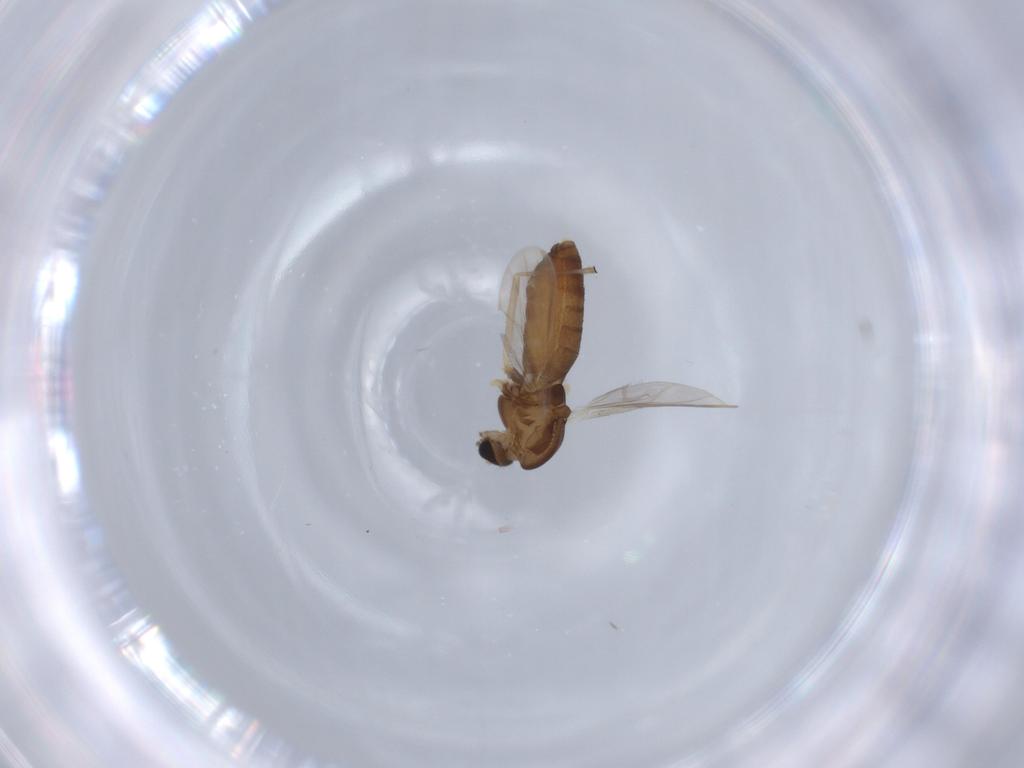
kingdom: Animalia
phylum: Arthropoda
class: Insecta
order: Diptera
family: Chironomidae
